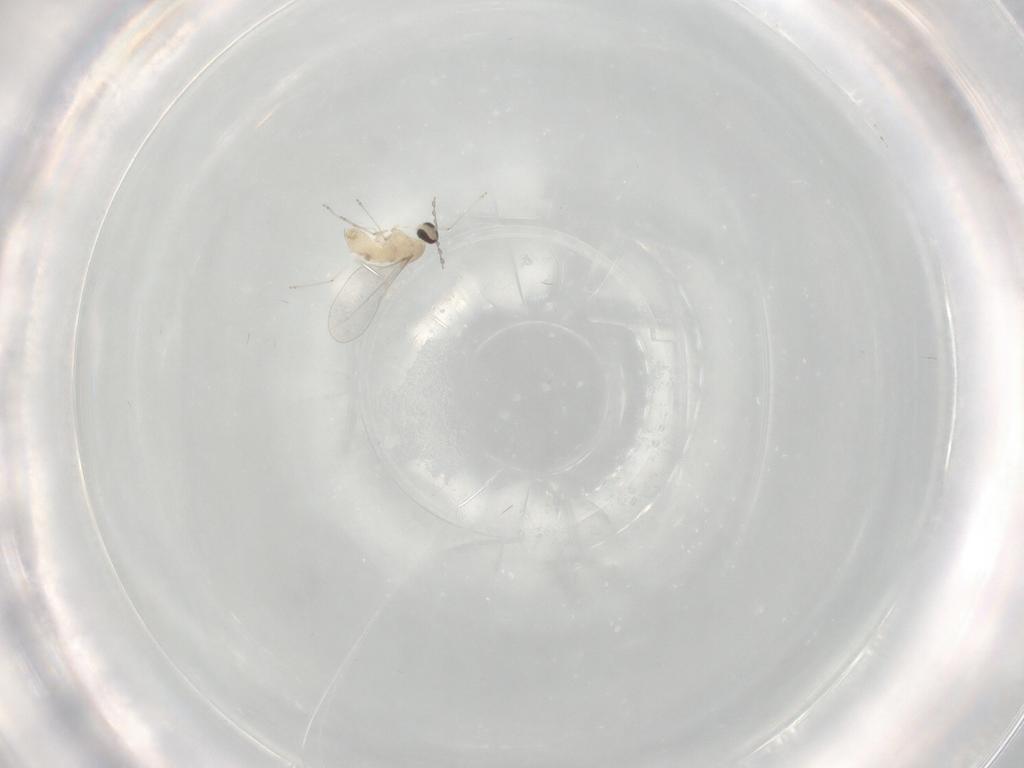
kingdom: Animalia
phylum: Arthropoda
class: Insecta
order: Diptera
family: Cecidomyiidae
